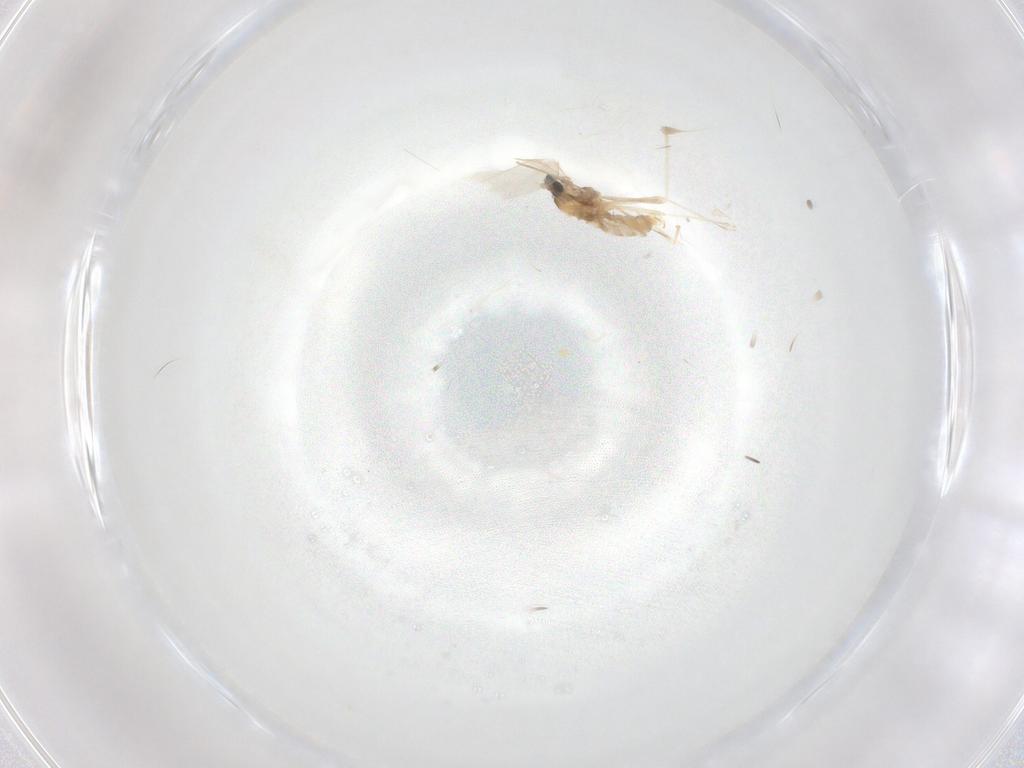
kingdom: Animalia
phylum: Arthropoda
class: Insecta
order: Diptera
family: Cecidomyiidae
